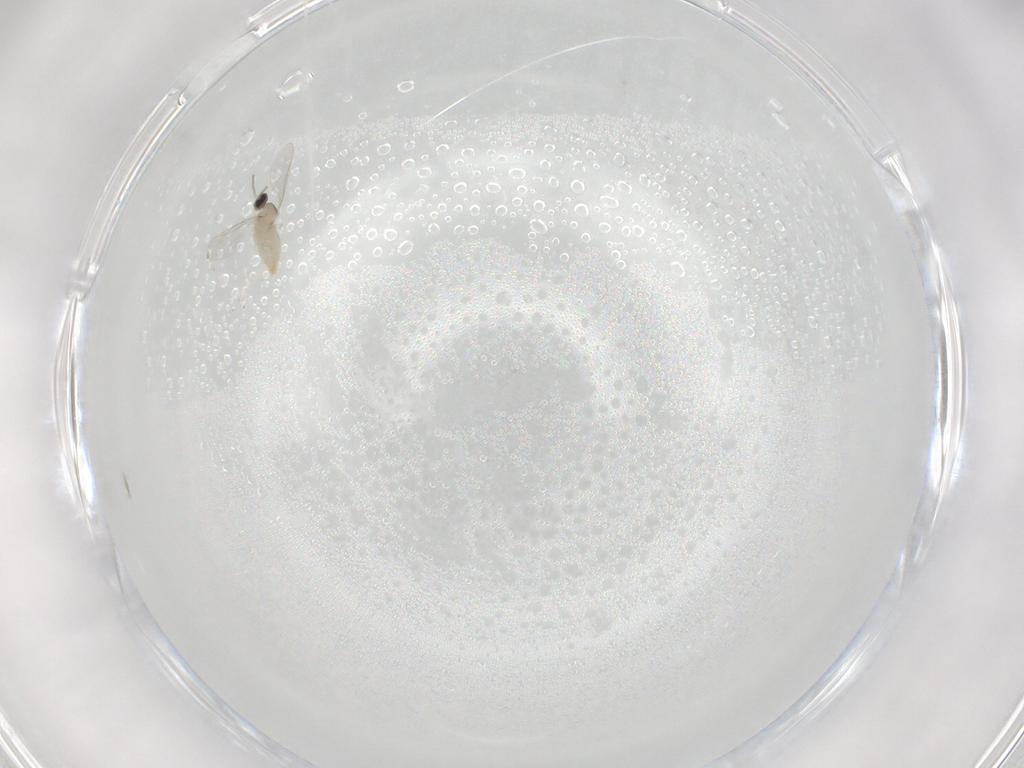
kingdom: Animalia
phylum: Arthropoda
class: Insecta
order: Diptera
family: Cecidomyiidae
